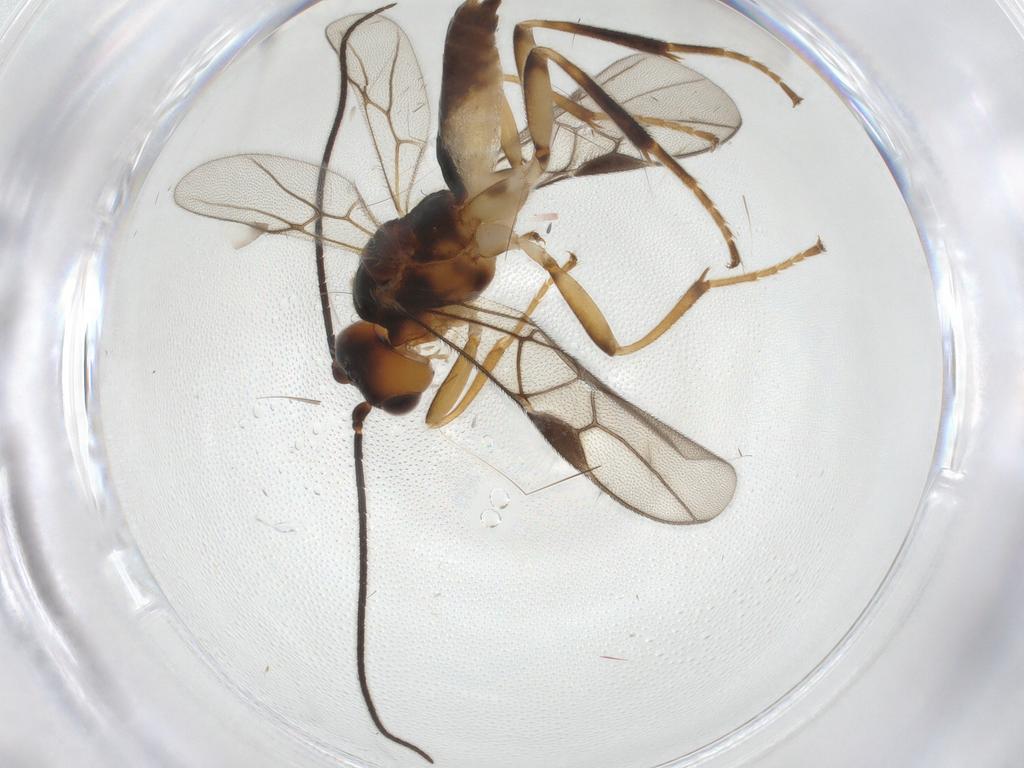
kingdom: Animalia
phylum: Arthropoda
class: Insecta
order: Hymenoptera
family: Braconidae
